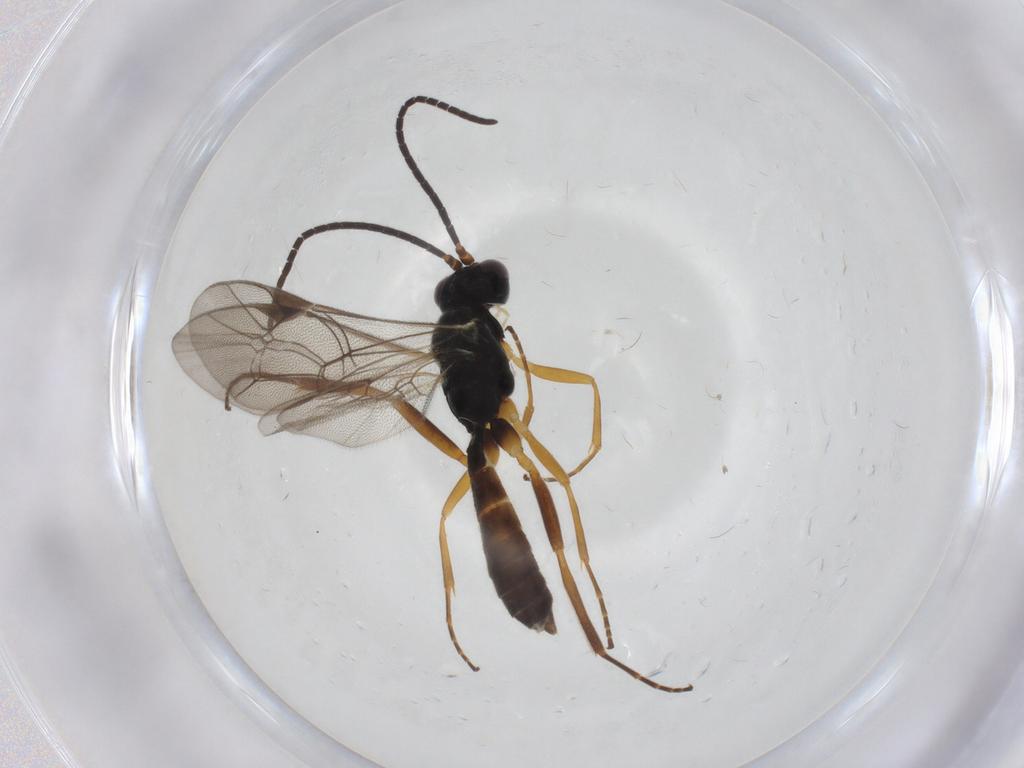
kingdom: Animalia
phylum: Arthropoda
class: Insecta
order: Hymenoptera
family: Ichneumonidae
